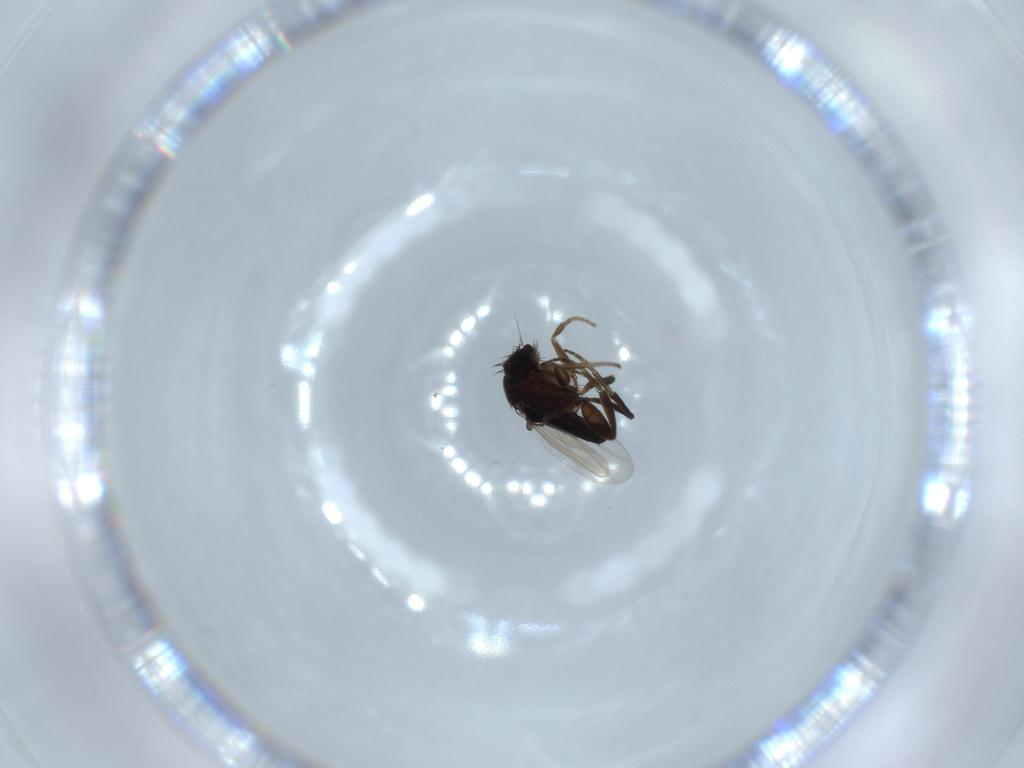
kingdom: Animalia
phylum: Arthropoda
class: Insecta
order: Diptera
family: Phoridae
